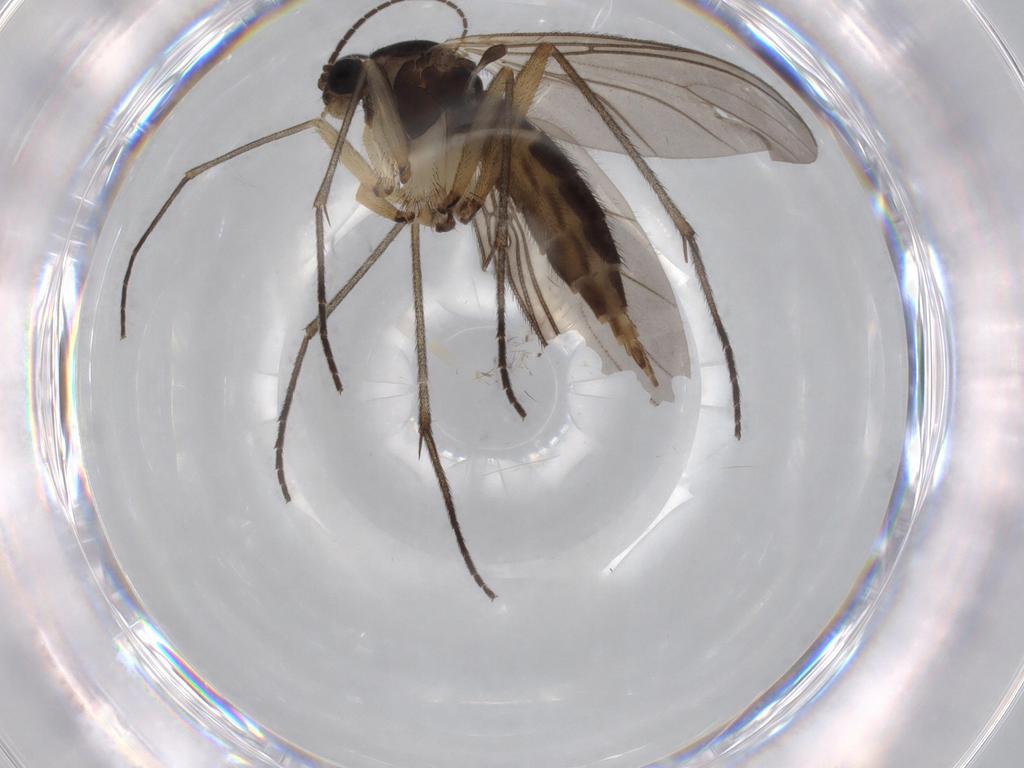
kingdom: Animalia
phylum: Arthropoda
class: Insecta
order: Diptera
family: Sciaridae
